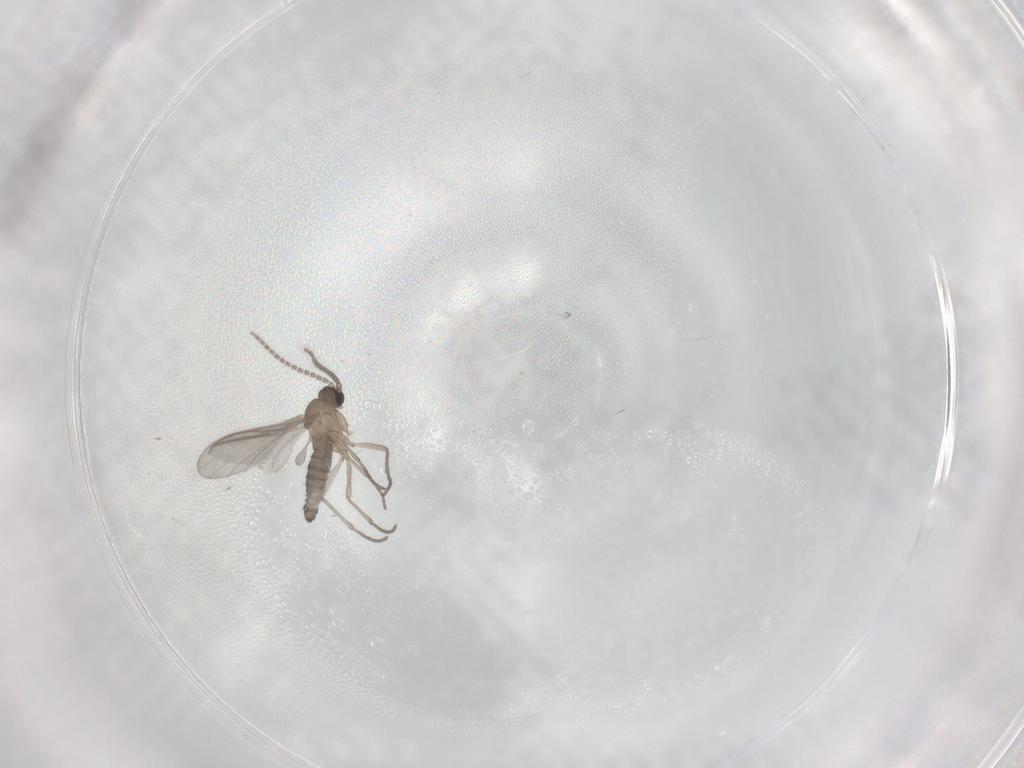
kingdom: Animalia
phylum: Arthropoda
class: Insecta
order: Diptera
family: Sciaridae
